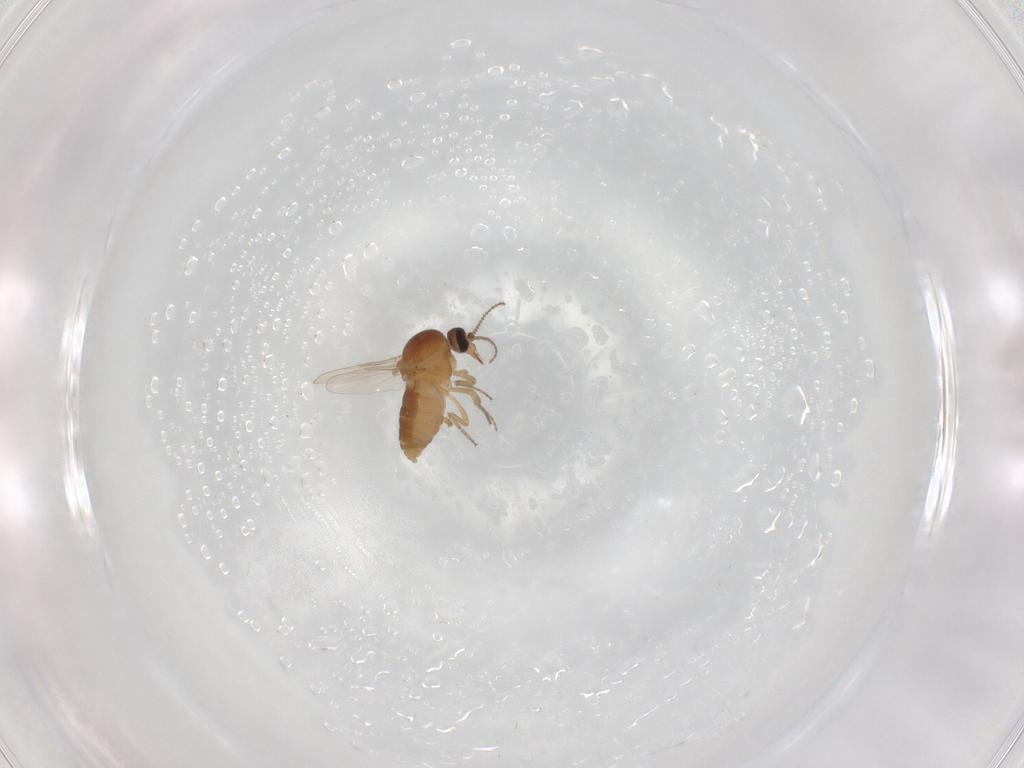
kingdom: Animalia
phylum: Arthropoda
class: Insecta
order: Diptera
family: Ceratopogonidae
